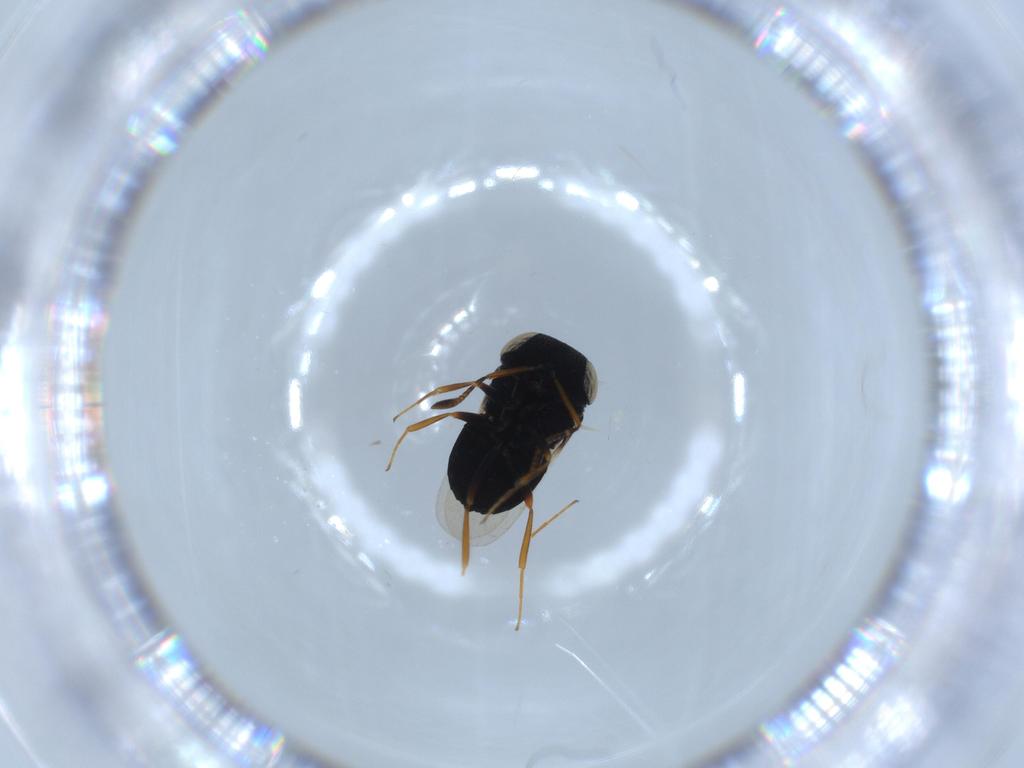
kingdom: Animalia
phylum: Arthropoda
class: Insecta
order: Hymenoptera
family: Scelionidae
